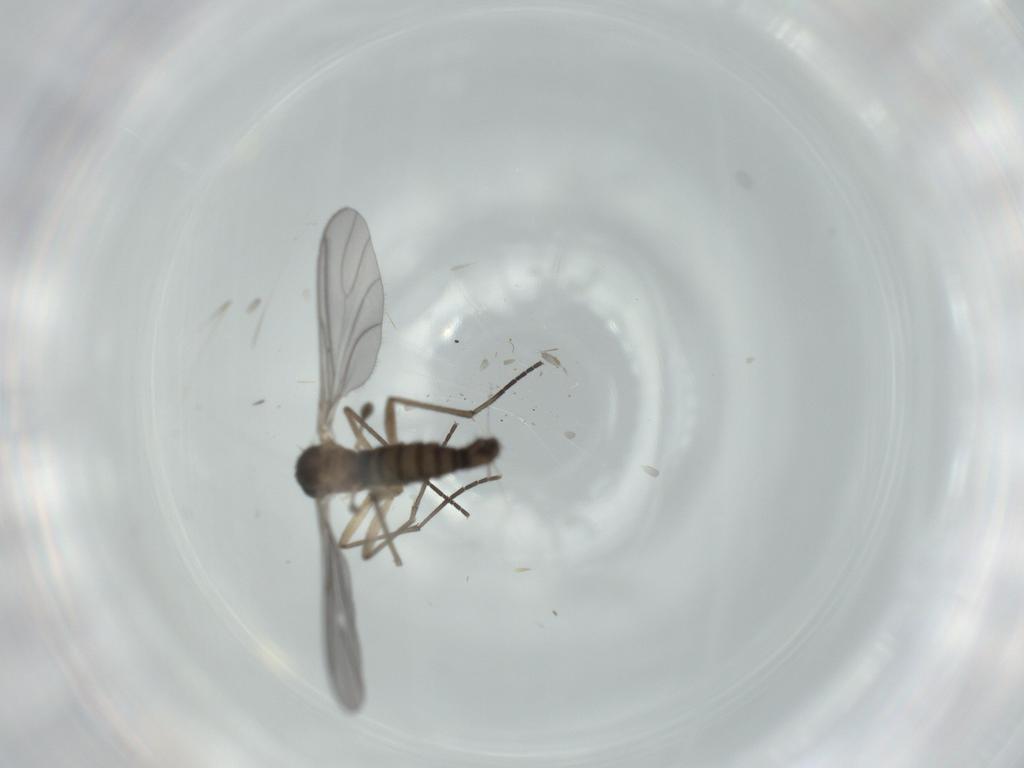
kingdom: Animalia
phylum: Arthropoda
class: Insecta
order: Diptera
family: Sciaridae
